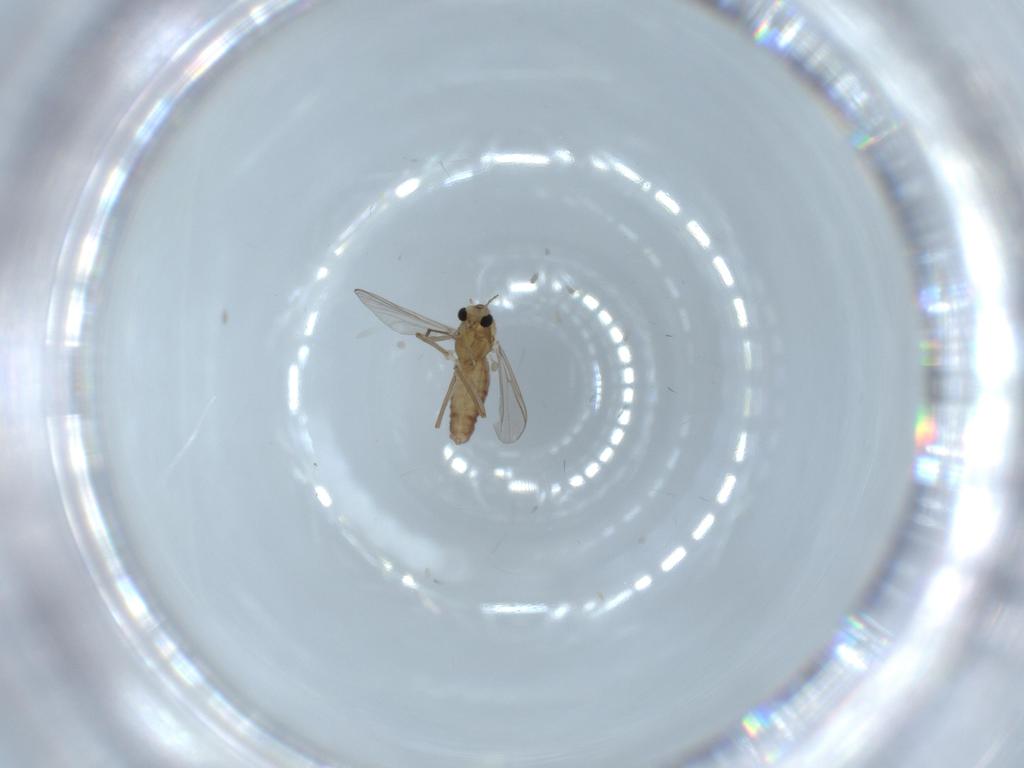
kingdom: Animalia
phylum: Arthropoda
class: Insecta
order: Diptera
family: Chironomidae
